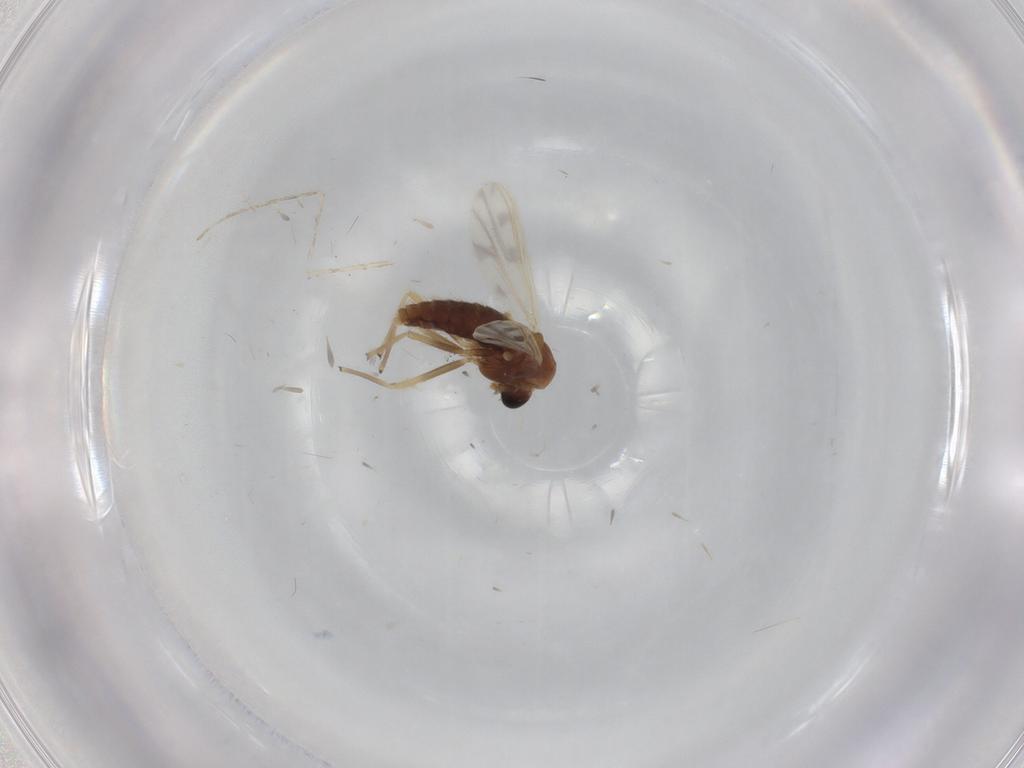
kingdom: Animalia
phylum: Arthropoda
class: Insecta
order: Diptera
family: Chironomidae
